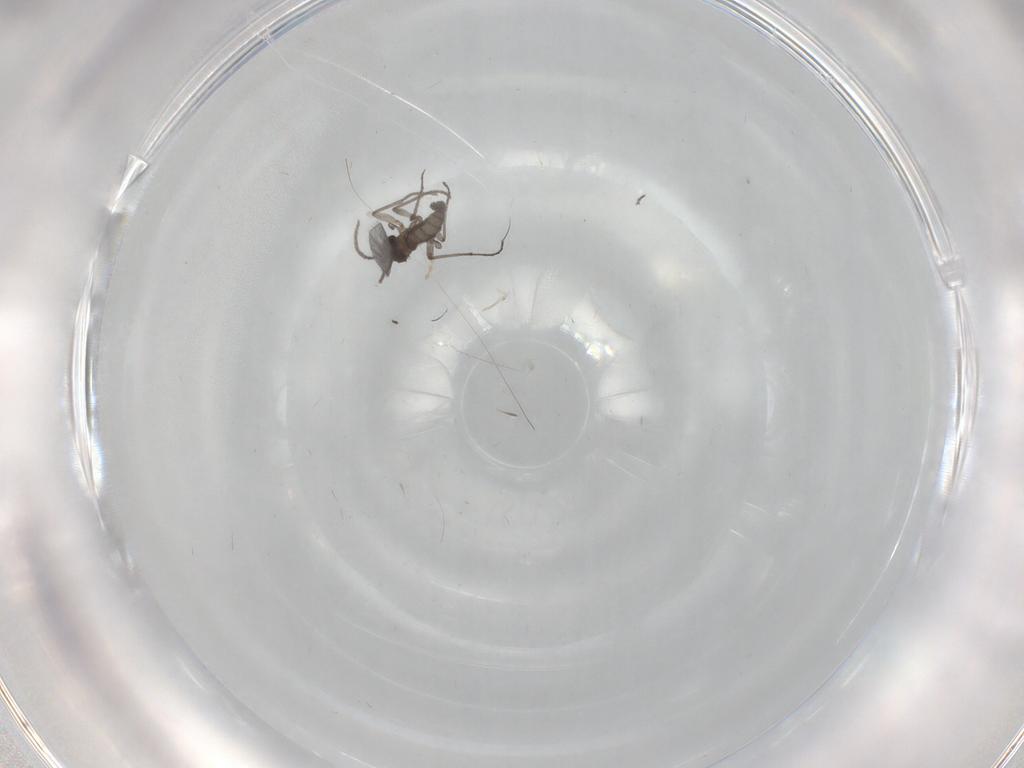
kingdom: Animalia
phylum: Arthropoda
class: Insecta
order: Diptera
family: Sciaridae
